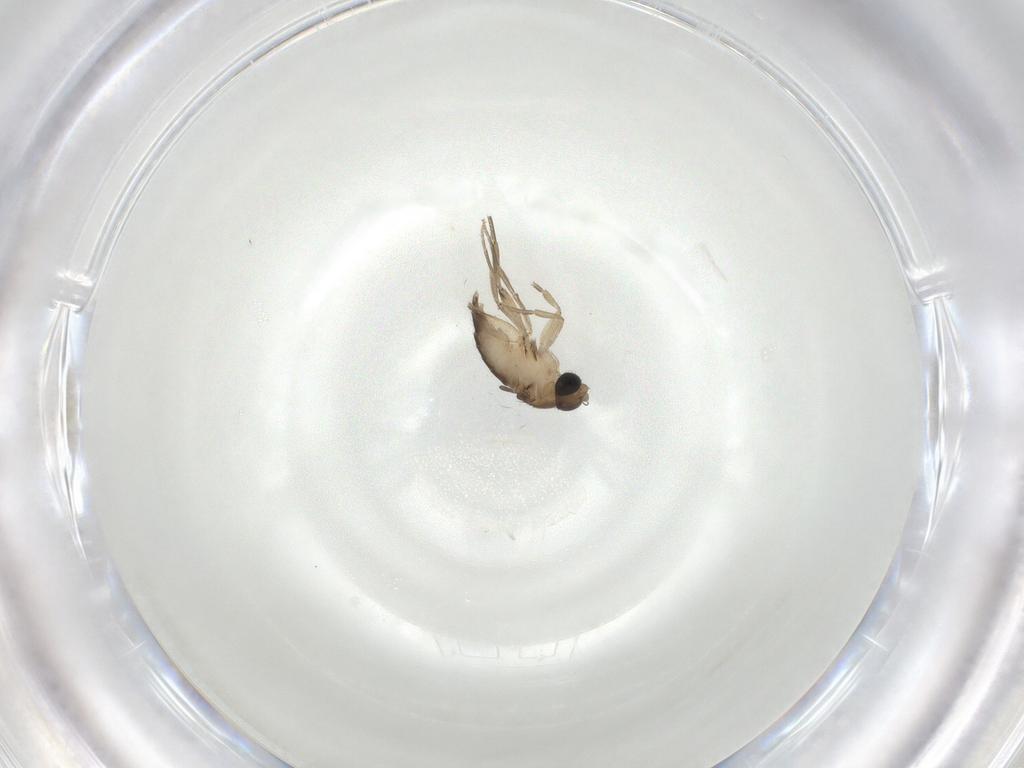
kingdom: Animalia
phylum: Arthropoda
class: Insecta
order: Diptera
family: Phoridae
